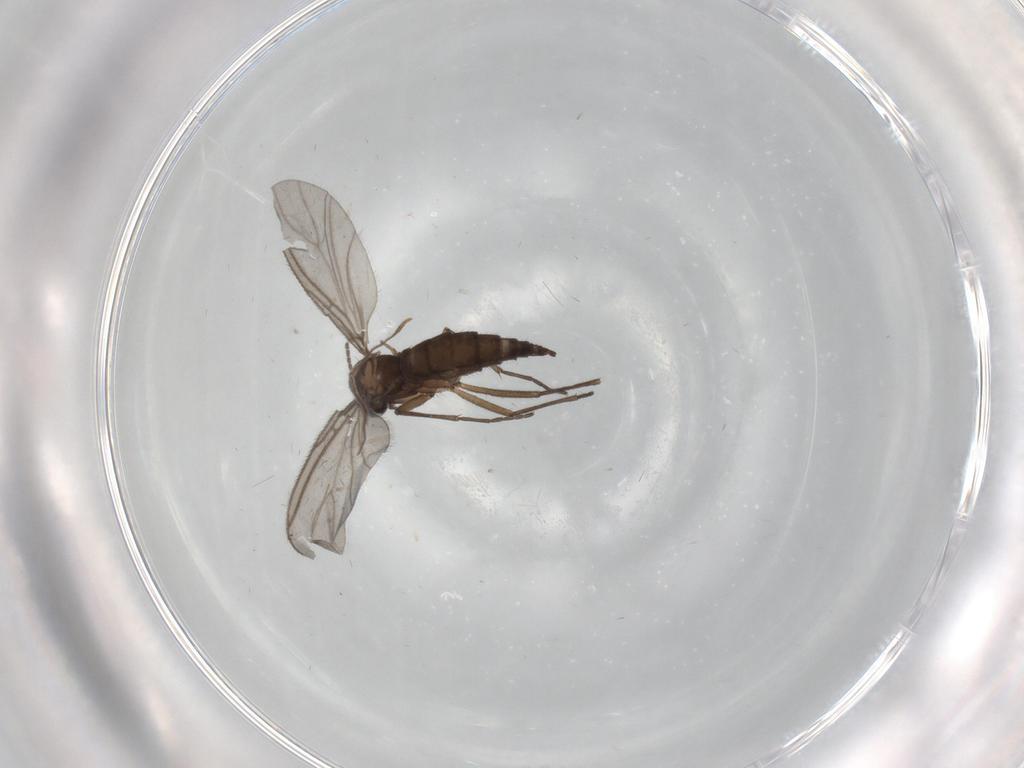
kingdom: Animalia
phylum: Arthropoda
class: Insecta
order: Diptera
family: Sciaridae
